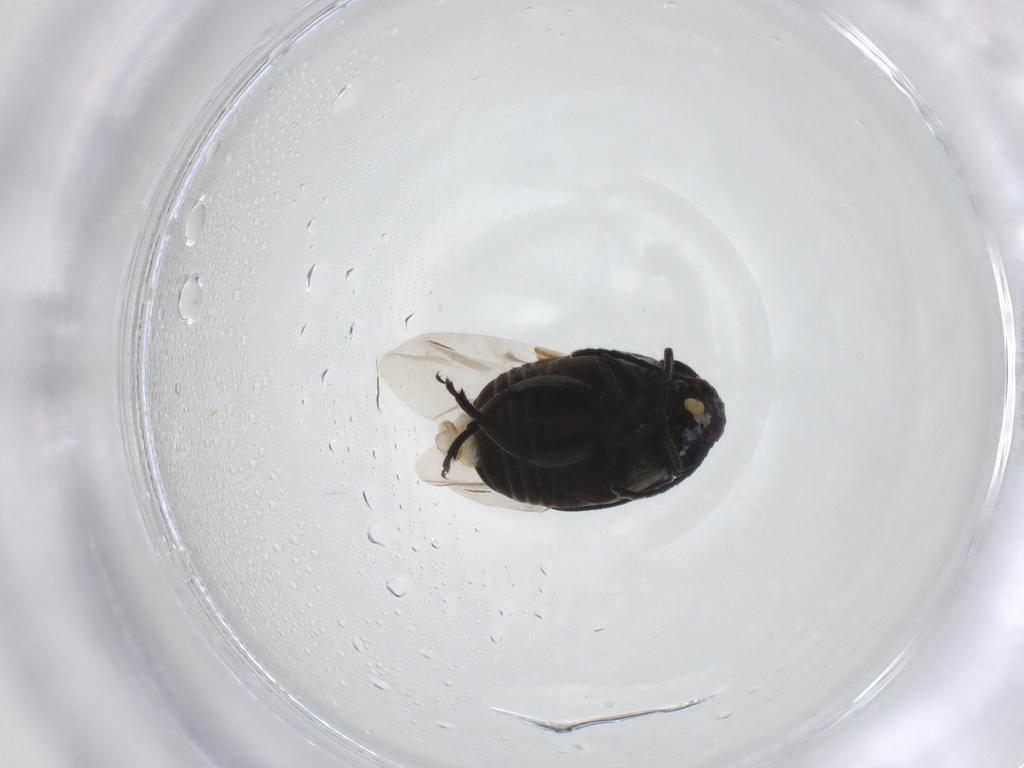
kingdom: Animalia
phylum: Arthropoda
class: Insecta
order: Coleoptera
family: Chrysomelidae
